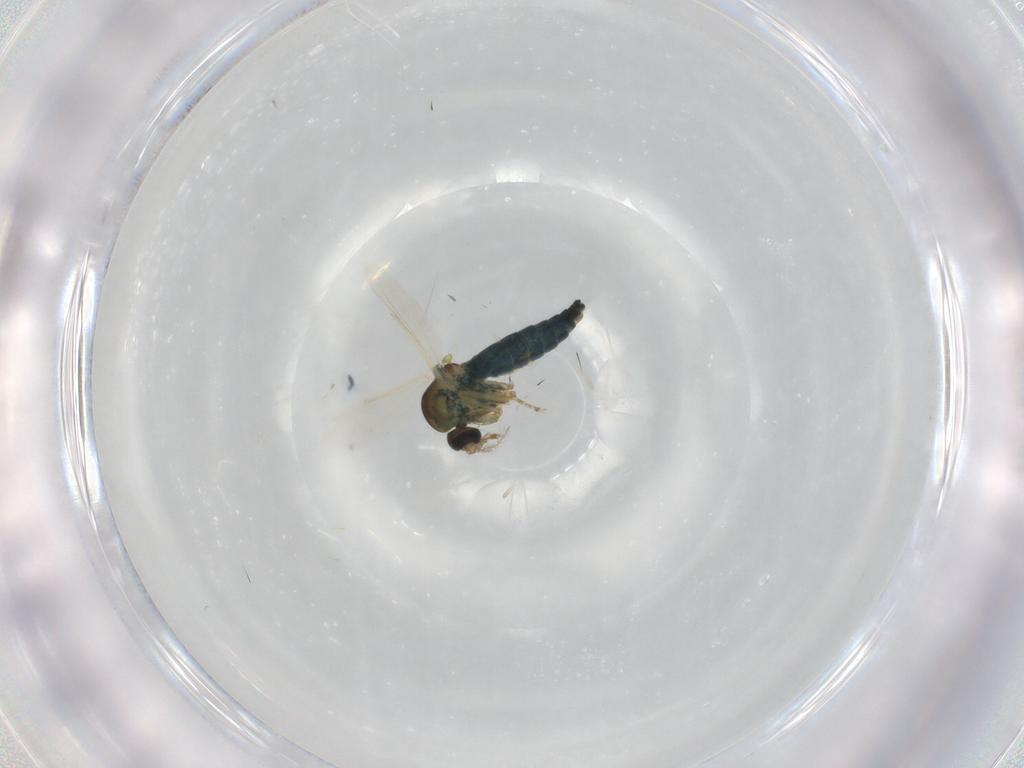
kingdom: Animalia
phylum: Arthropoda
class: Insecta
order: Diptera
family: Ceratopogonidae
